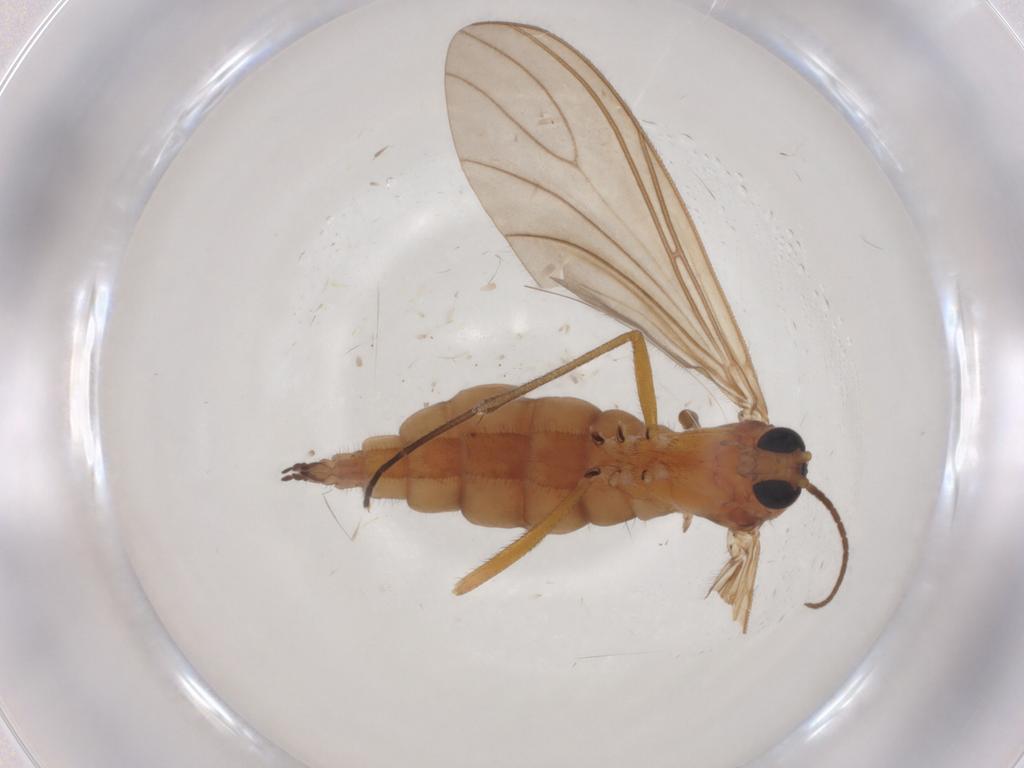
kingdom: Animalia
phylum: Arthropoda
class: Insecta
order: Diptera
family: Sciaridae
